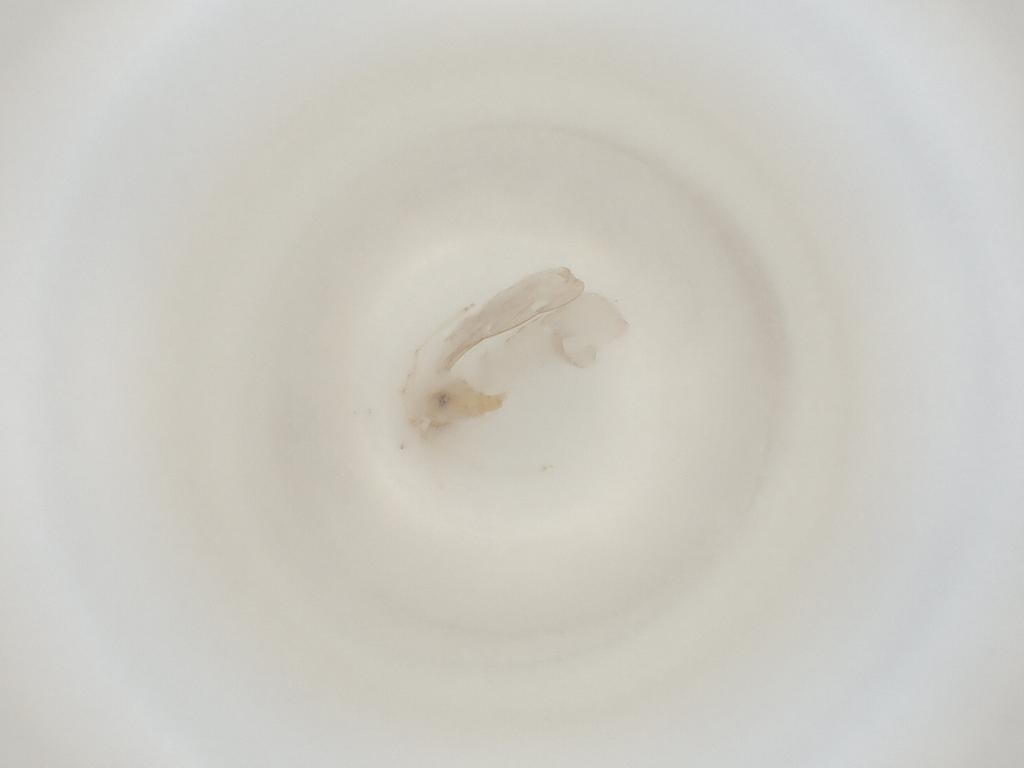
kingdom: Animalia
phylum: Arthropoda
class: Insecta
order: Diptera
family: Cecidomyiidae
